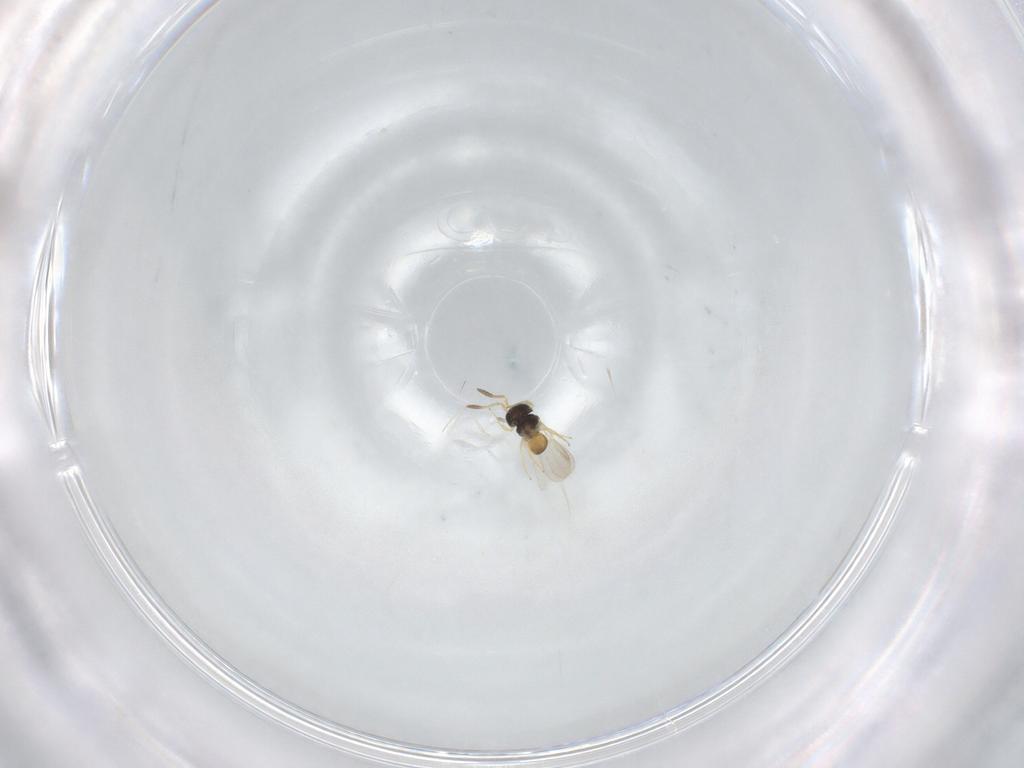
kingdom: Animalia
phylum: Arthropoda
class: Insecta
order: Hymenoptera
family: Scelionidae
